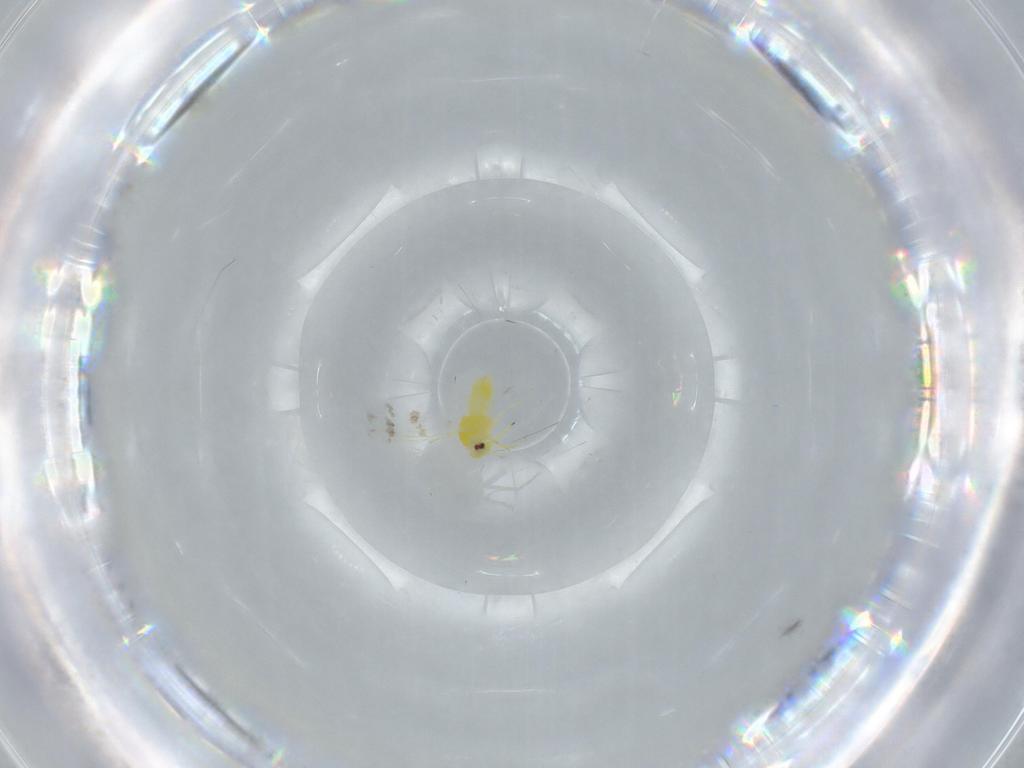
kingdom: Animalia
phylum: Arthropoda
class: Insecta
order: Hemiptera
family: Aleyrodidae
